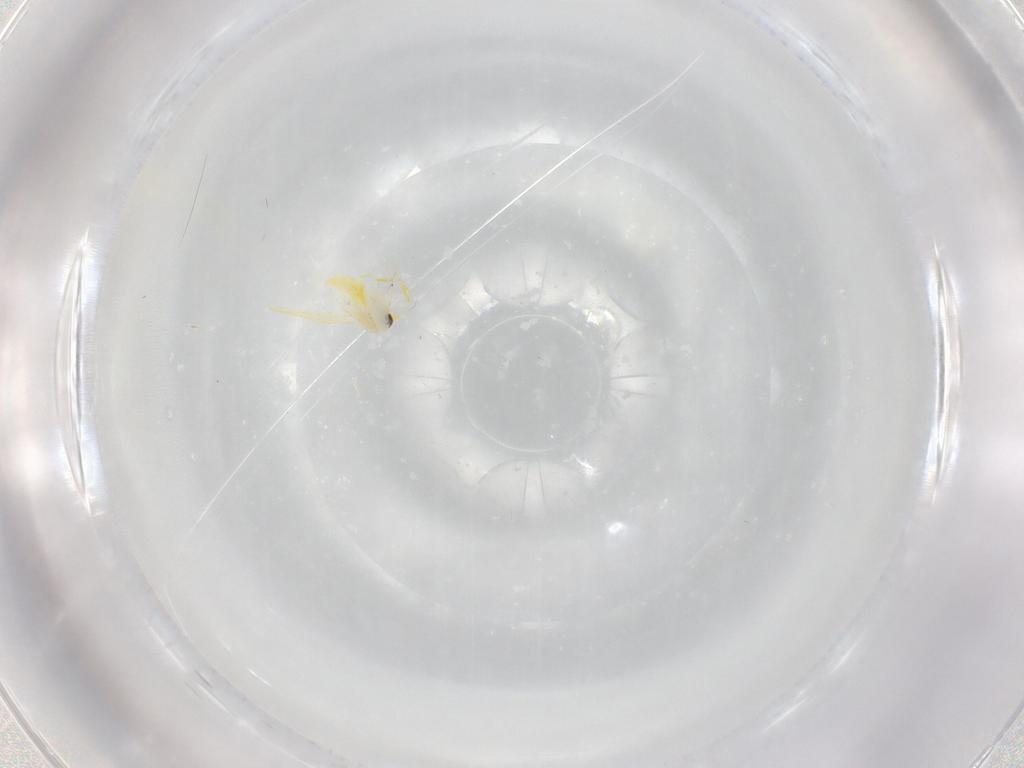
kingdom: Animalia
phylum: Arthropoda
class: Insecta
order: Hemiptera
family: Aleyrodidae
